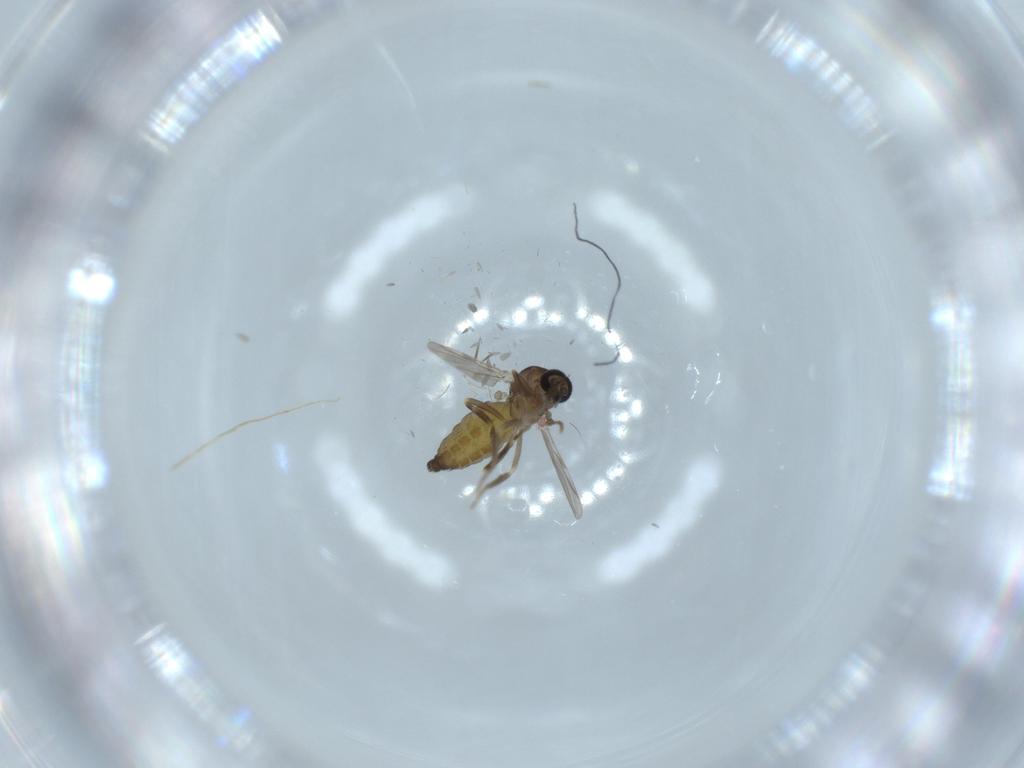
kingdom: Animalia
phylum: Arthropoda
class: Insecta
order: Diptera
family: Ceratopogonidae
